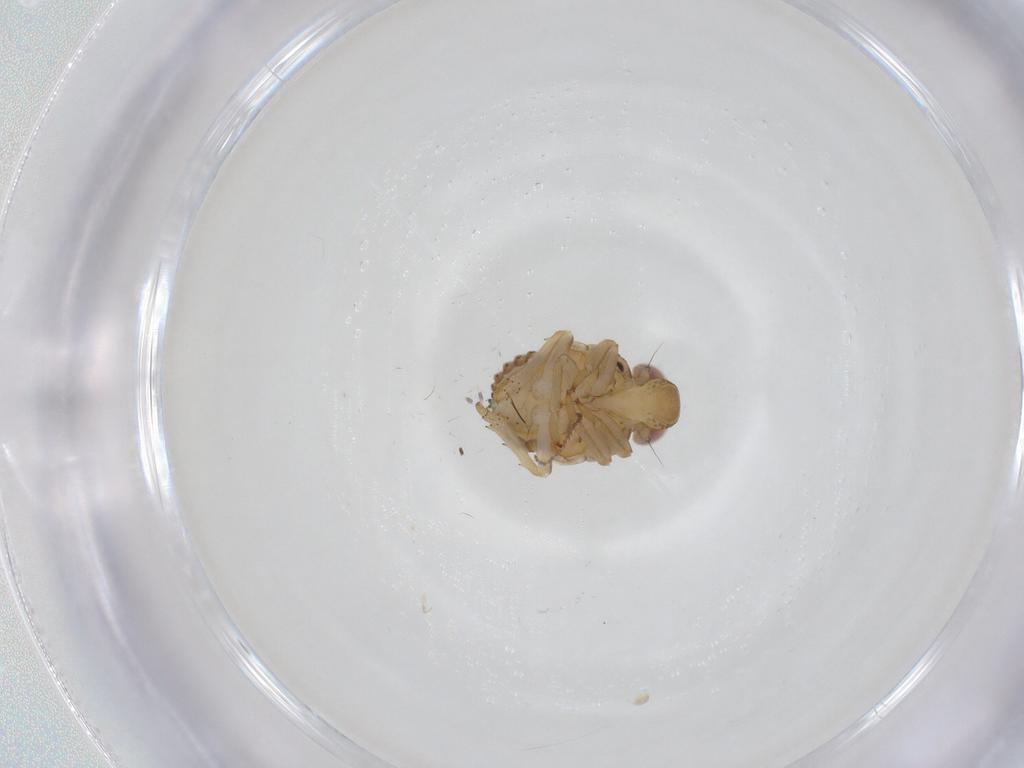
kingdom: Animalia
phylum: Arthropoda
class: Insecta
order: Hemiptera
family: Issidae
